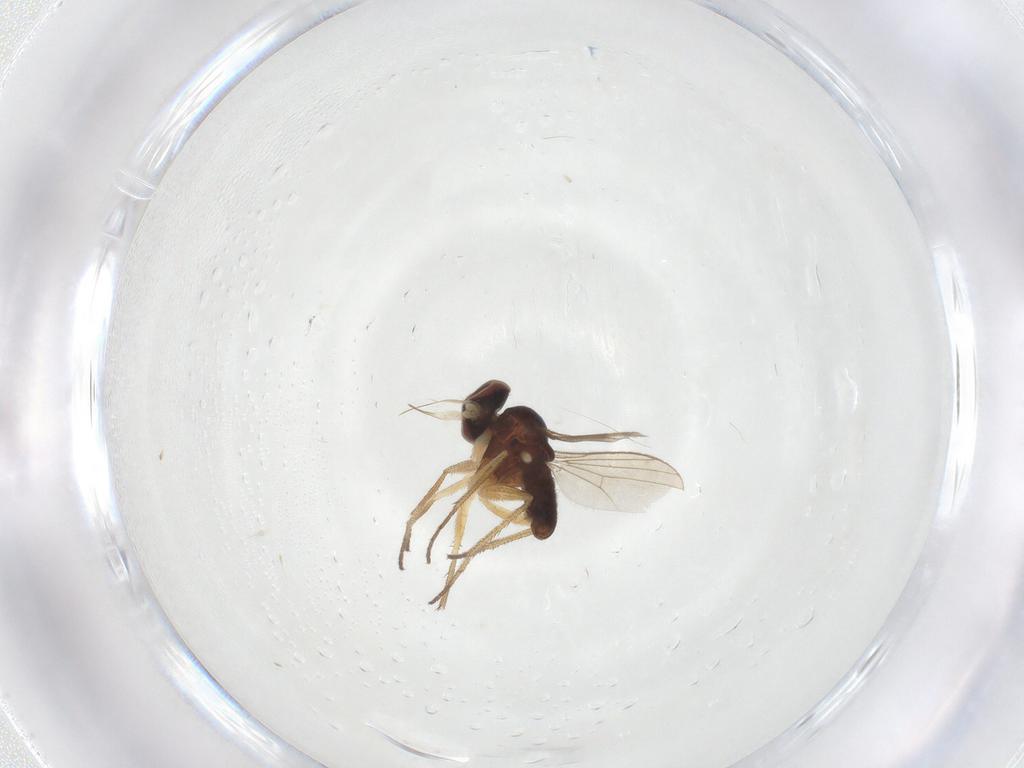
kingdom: Animalia
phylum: Arthropoda
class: Insecta
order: Diptera
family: Dolichopodidae
